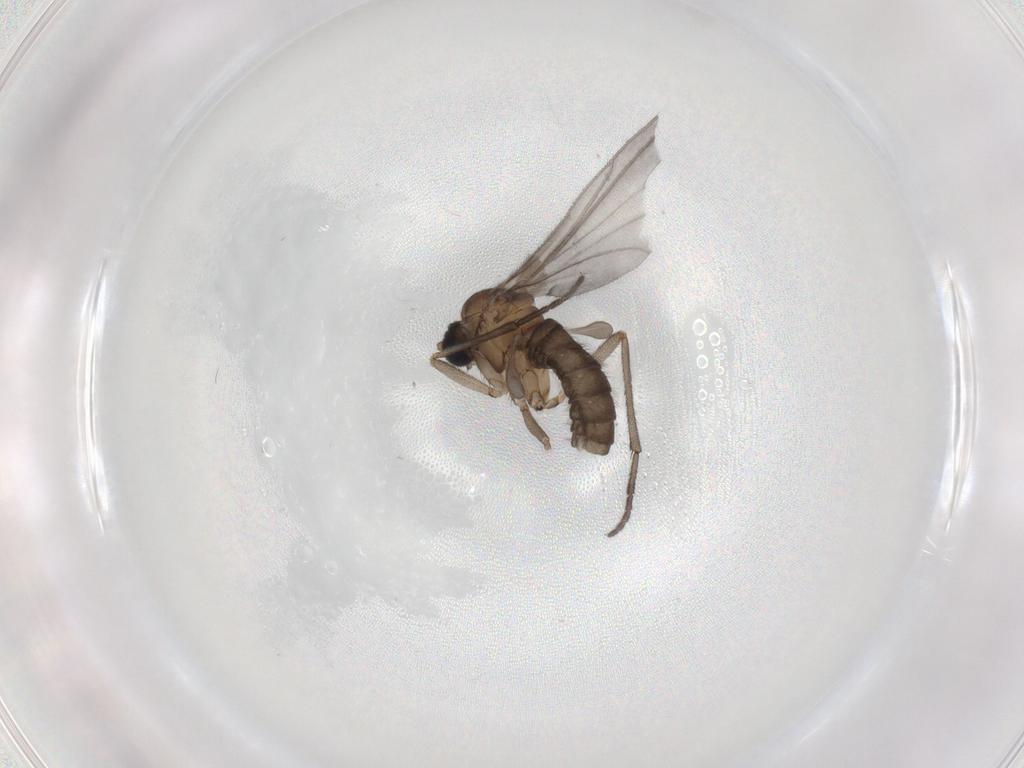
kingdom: Animalia
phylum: Arthropoda
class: Insecta
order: Diptera
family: Sciaridae
